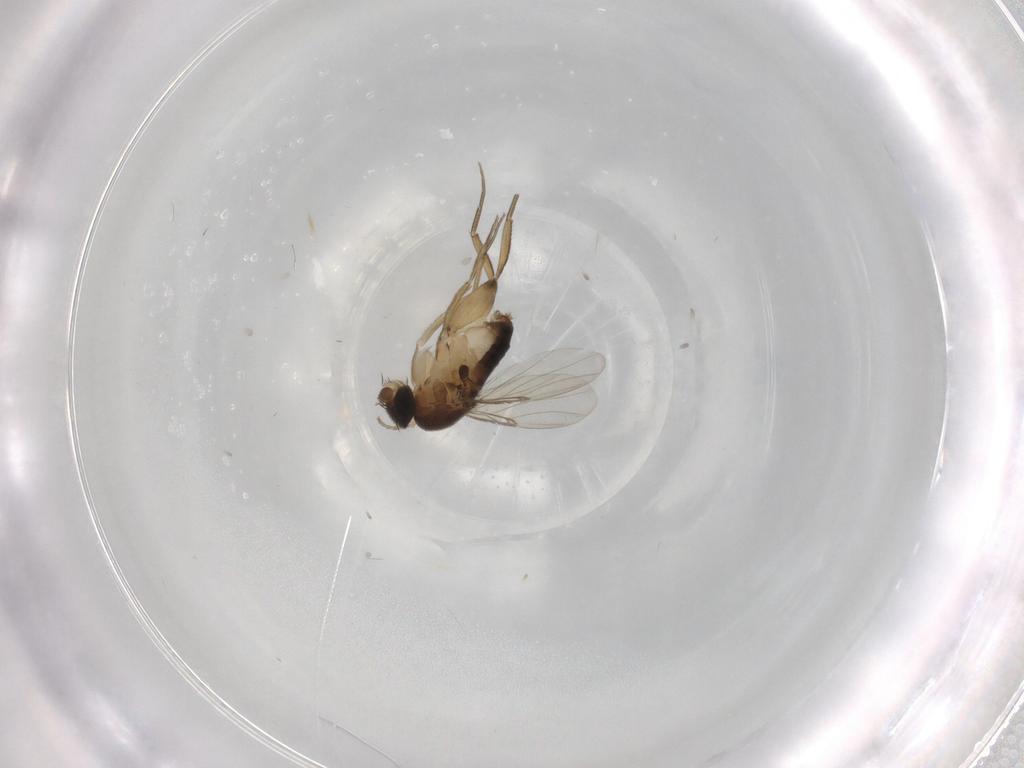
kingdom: Animalia
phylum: Arthropoda
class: Insecta
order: Diptera
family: Phoridae
